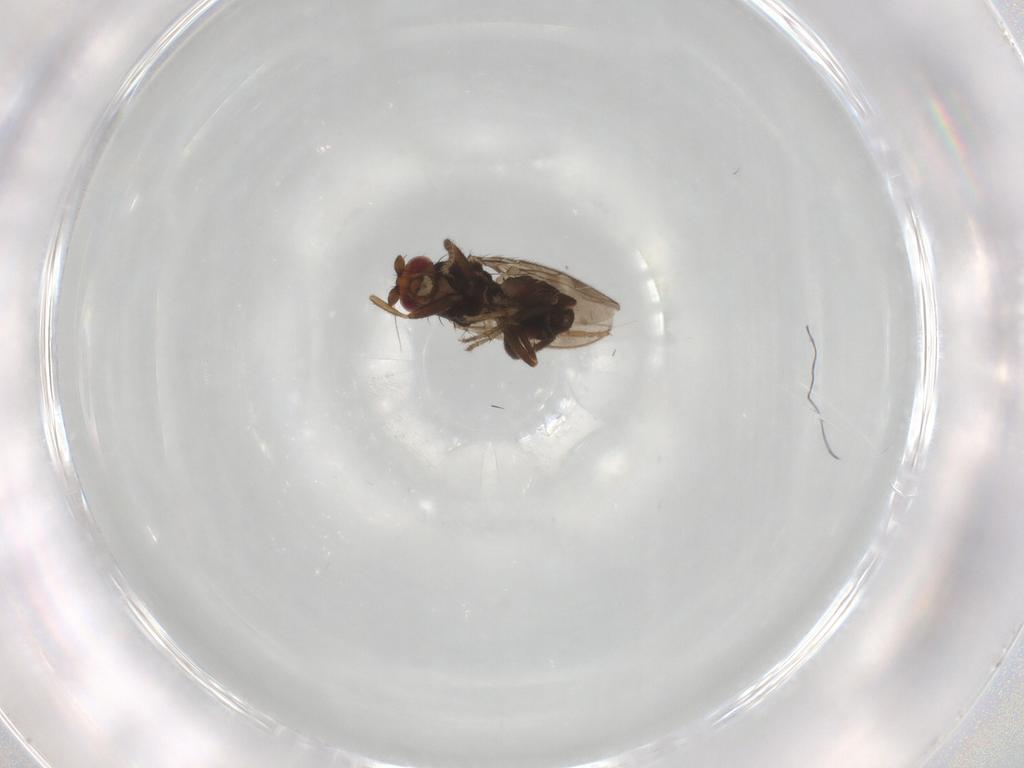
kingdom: Animalia
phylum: Arthropoda
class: Insecta
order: Diptera
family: Sphaeroceridae
